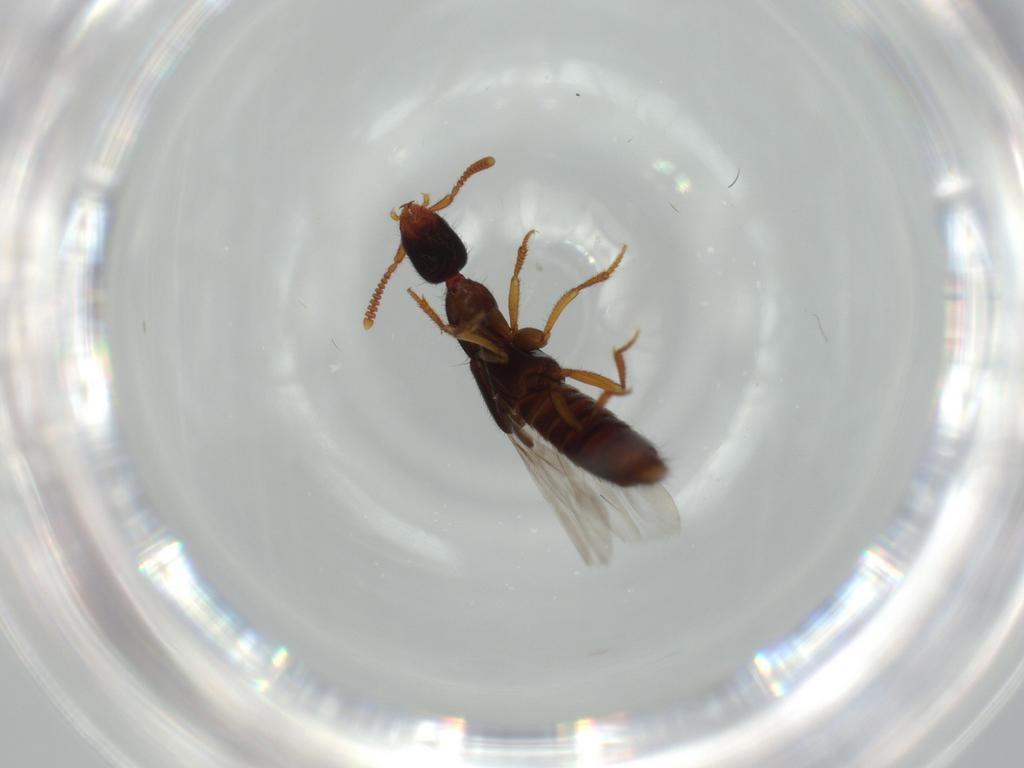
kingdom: Animalia
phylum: Arthropoda
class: Insecta
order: Coleoptera
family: Staphylinidae
